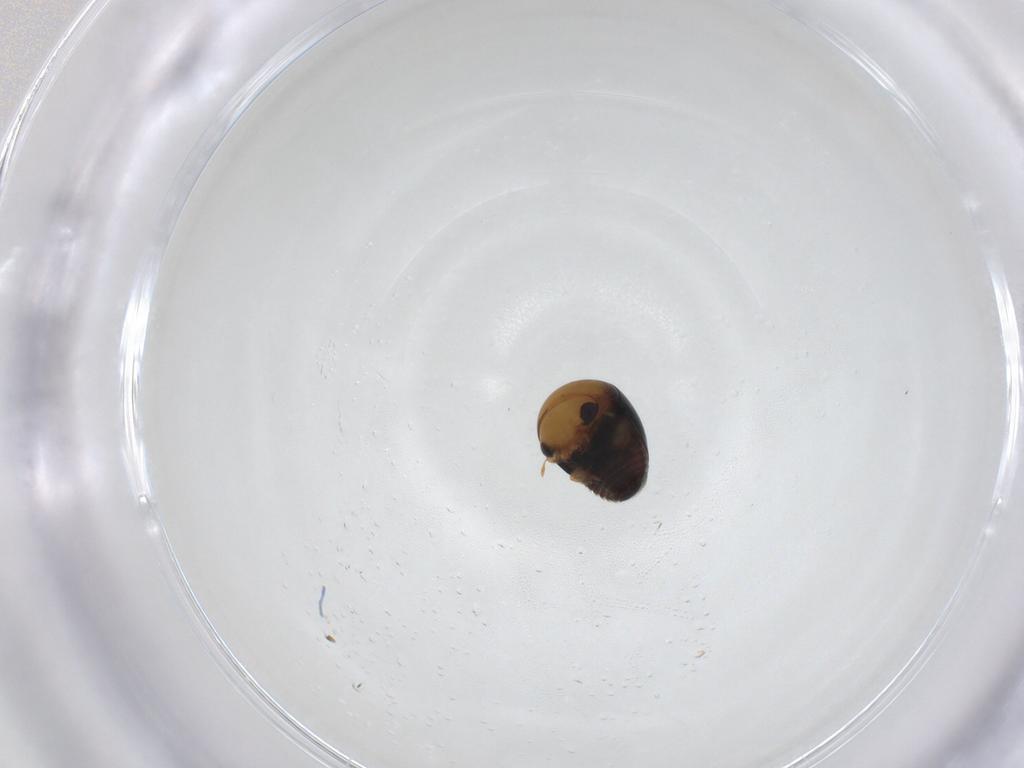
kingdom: Animalia
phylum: Arthropoda
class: Insecta
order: Coleoptera
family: Cybocephalidae
